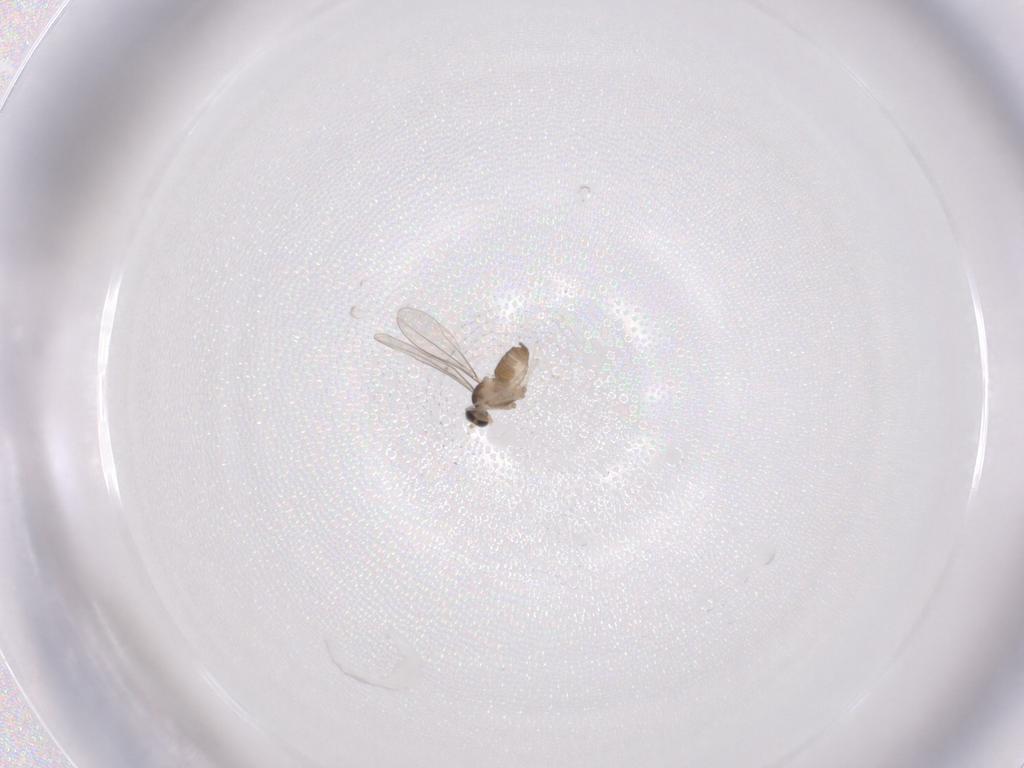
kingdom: Animalia
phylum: Arthropoda
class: Insecta
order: Diptera
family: Cecidomyiidae
